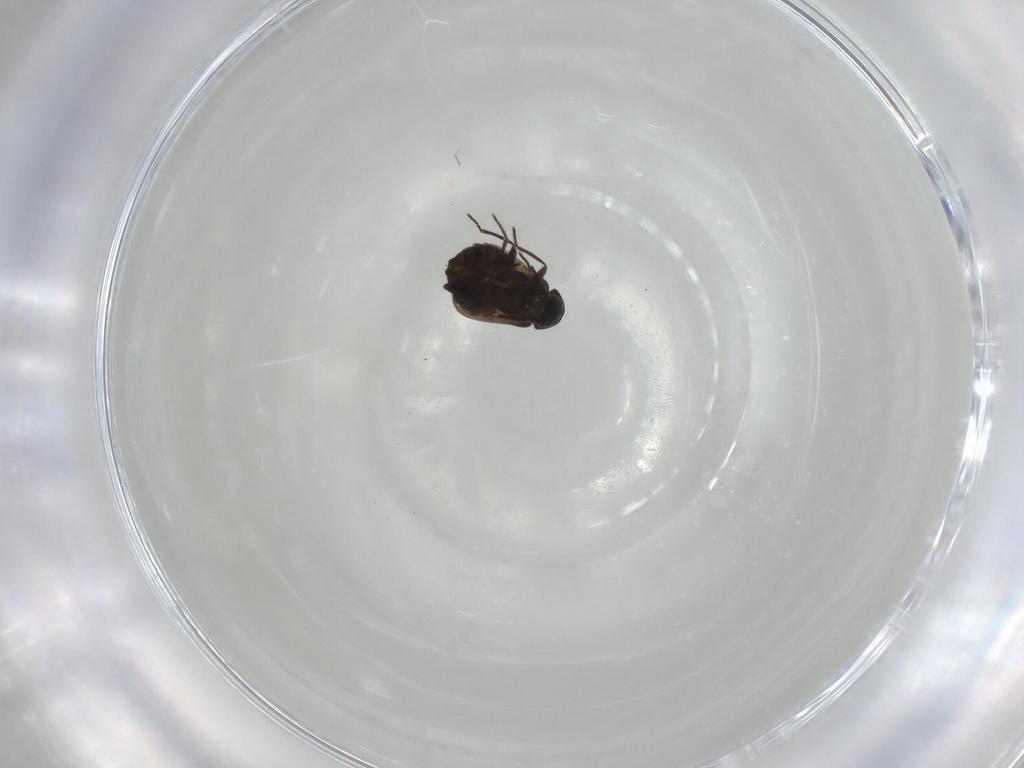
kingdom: Animalia
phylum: Arthropoda
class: Insecta
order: Coleoptera
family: Melyridae
